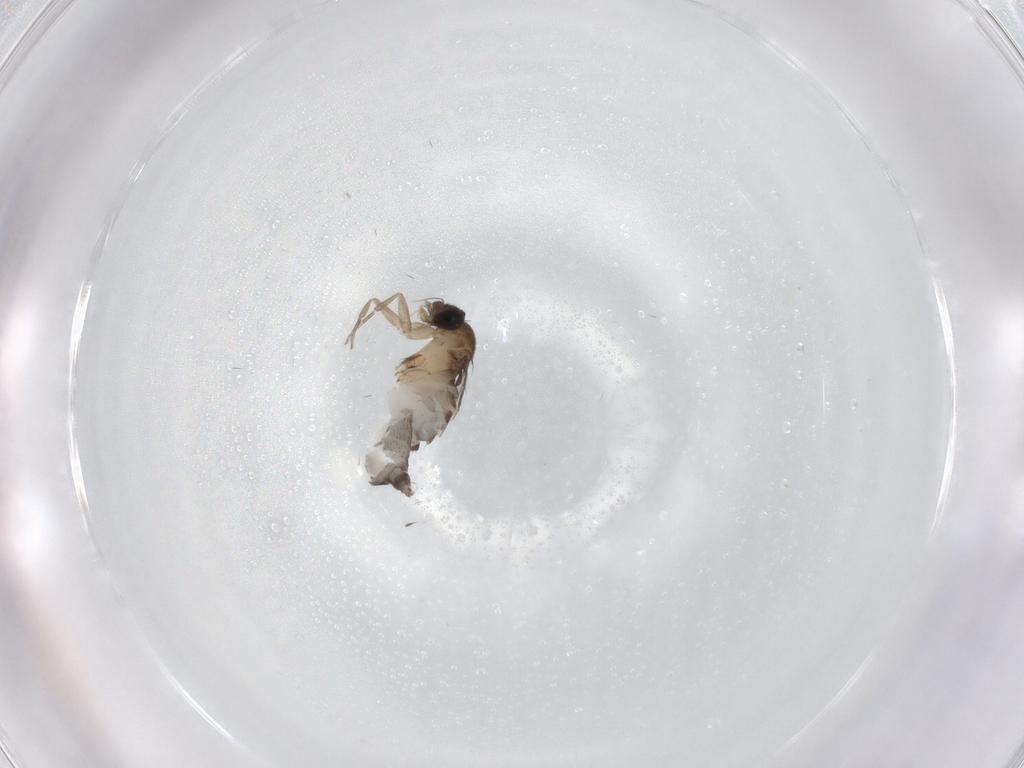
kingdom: Animalia
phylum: Arthropoda
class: Insecta
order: Diptera
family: Phoridae
